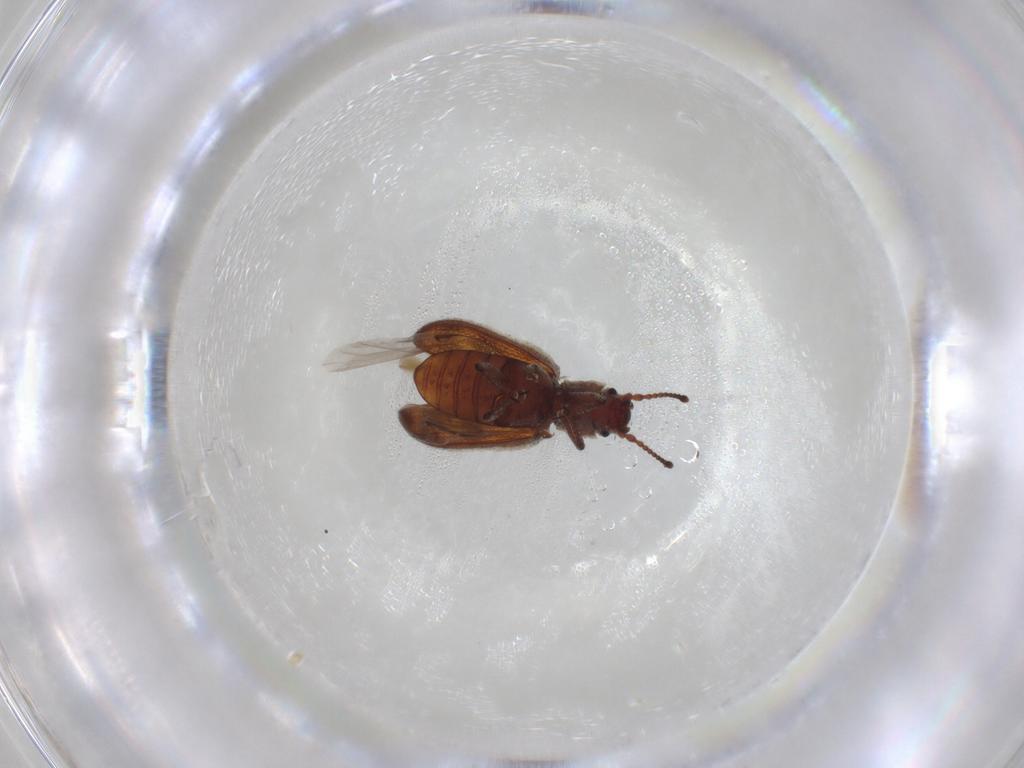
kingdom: Animalia
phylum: Arthropoda
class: Insecta
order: Coleoptera
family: Zopheridae
